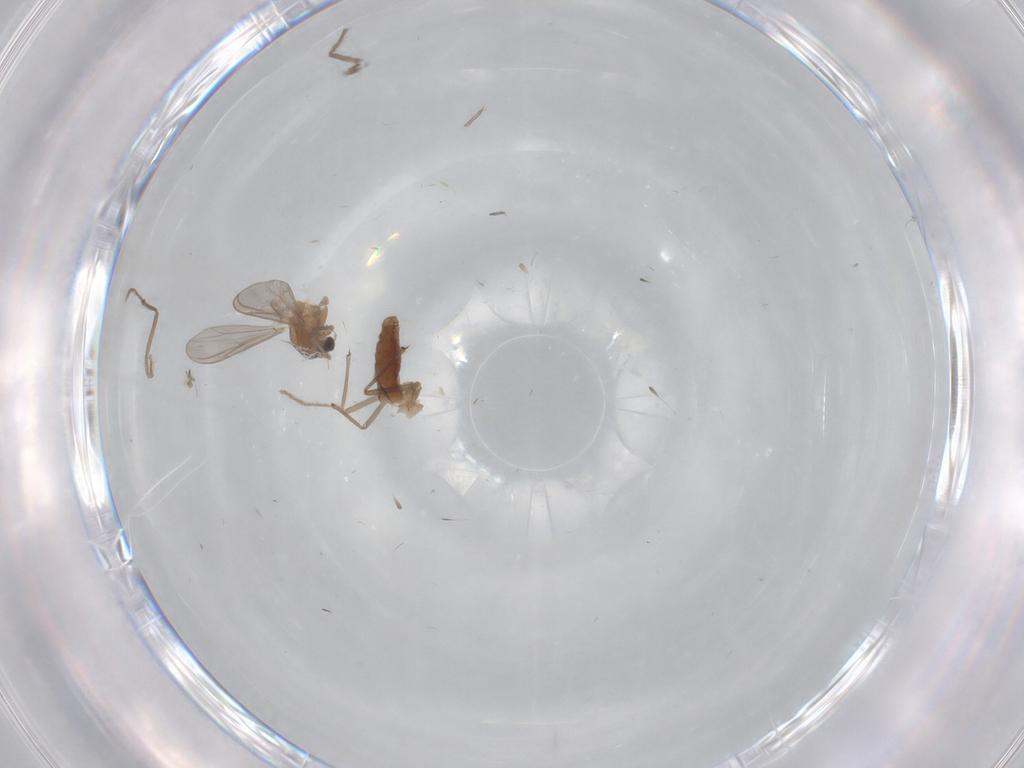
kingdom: Animalia
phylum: Arthropoda
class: Insecta
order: Diptera
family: Chironomidae
